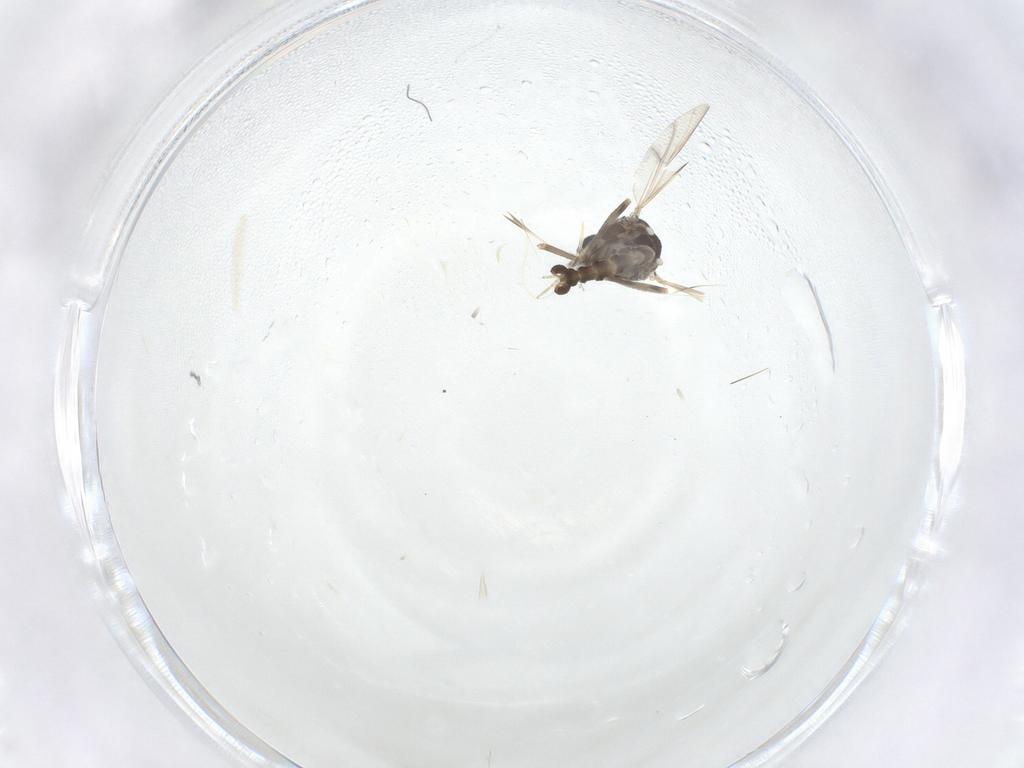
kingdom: Animalia
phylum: Arthropoda
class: Insecta
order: Diptera
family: Ceratopogonidae
